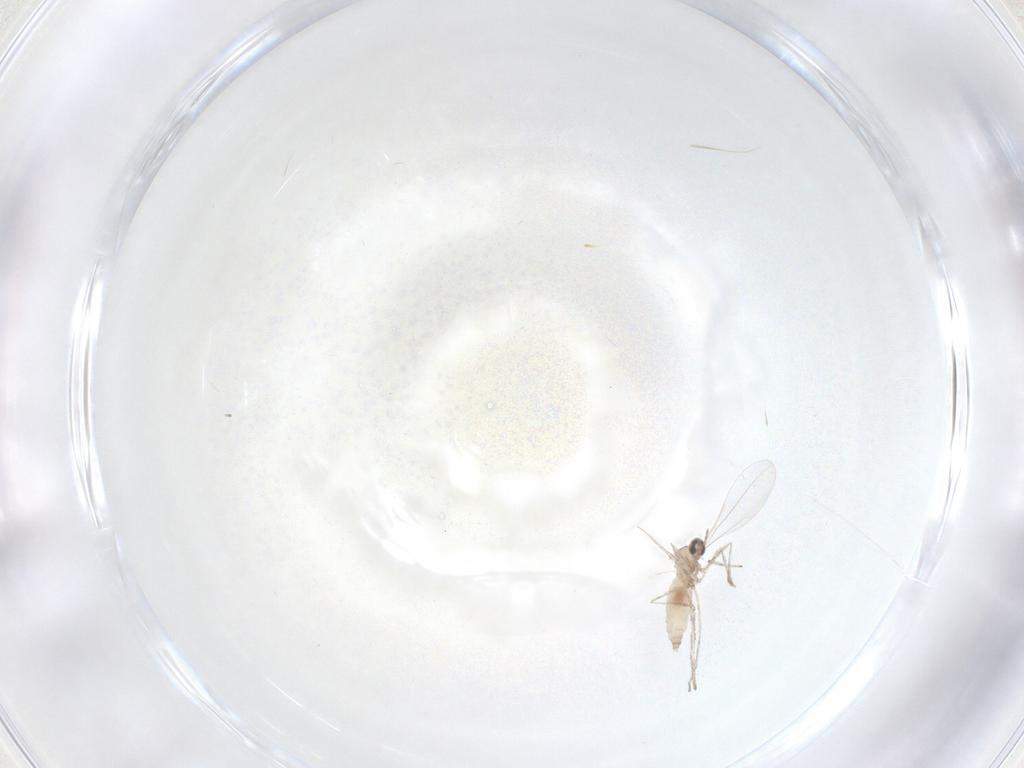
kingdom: Animalia
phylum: Arthropoda
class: Insecta
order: Diptera
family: Cecidomyiidae
